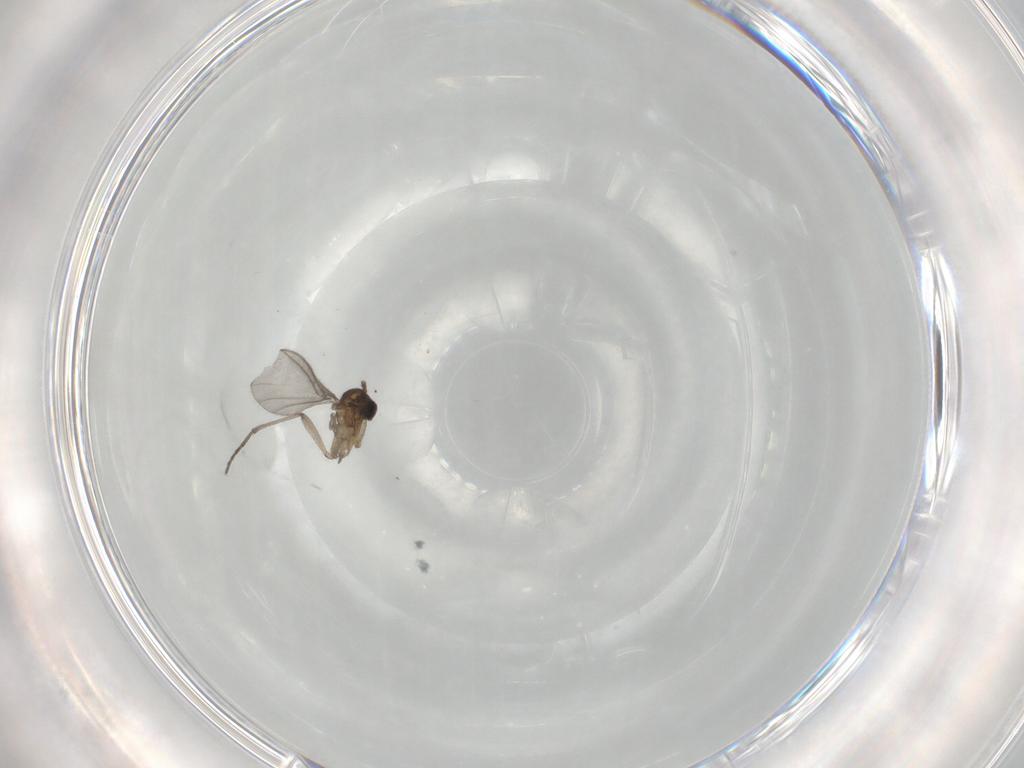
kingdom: Animalia
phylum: Arthropoda
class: Insecta
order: Diptera
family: Sciaridae
